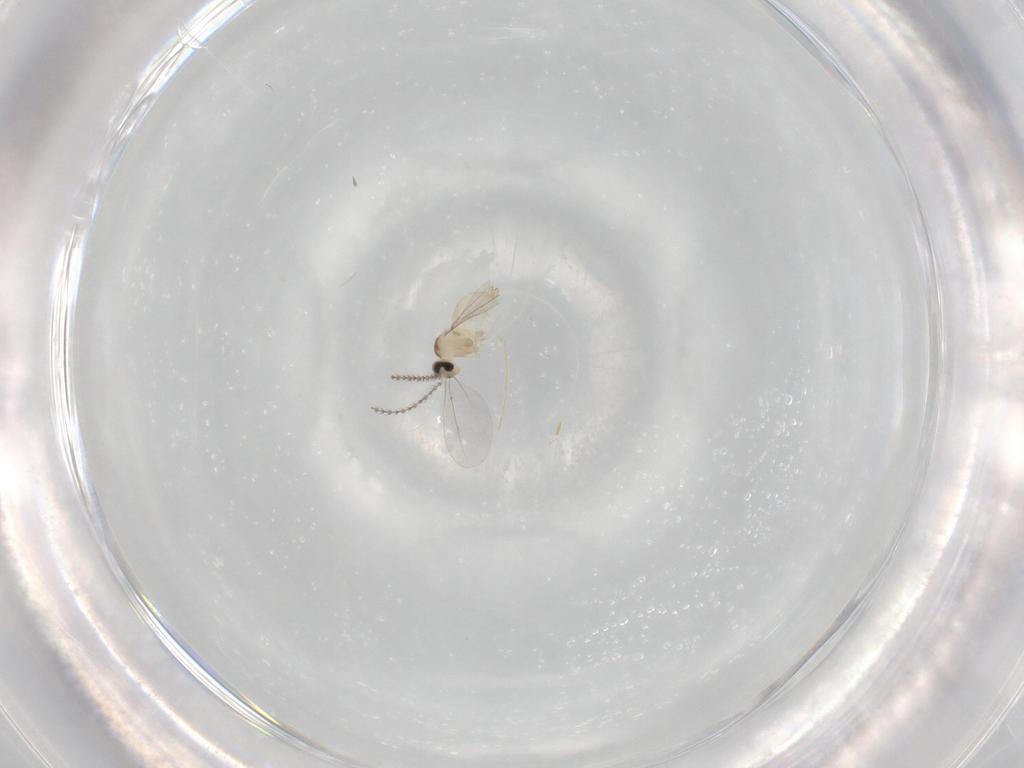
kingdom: Animalia
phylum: Arthropoda
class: Insecta
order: Diptera
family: Cecidomyiidae
